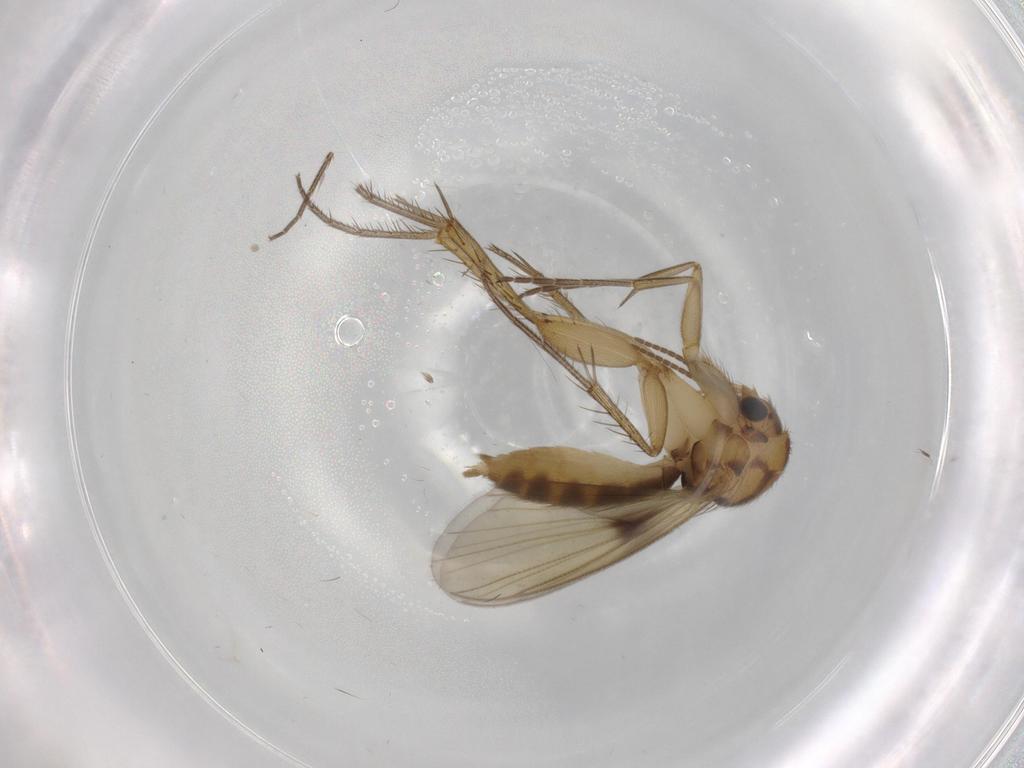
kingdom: Animalia
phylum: Arthropoda
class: Insecta
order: Diptera
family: Mycetophilidae
